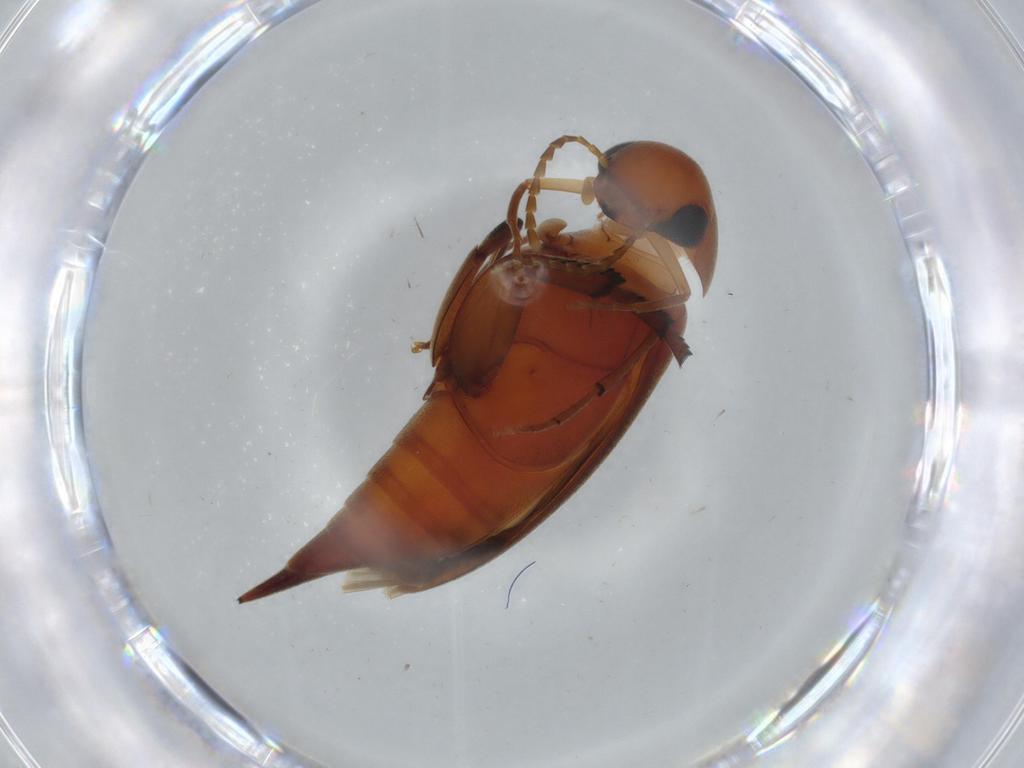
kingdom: Animalia
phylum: Arthropoda
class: Insecta
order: Coleoptera
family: Mordellidae
